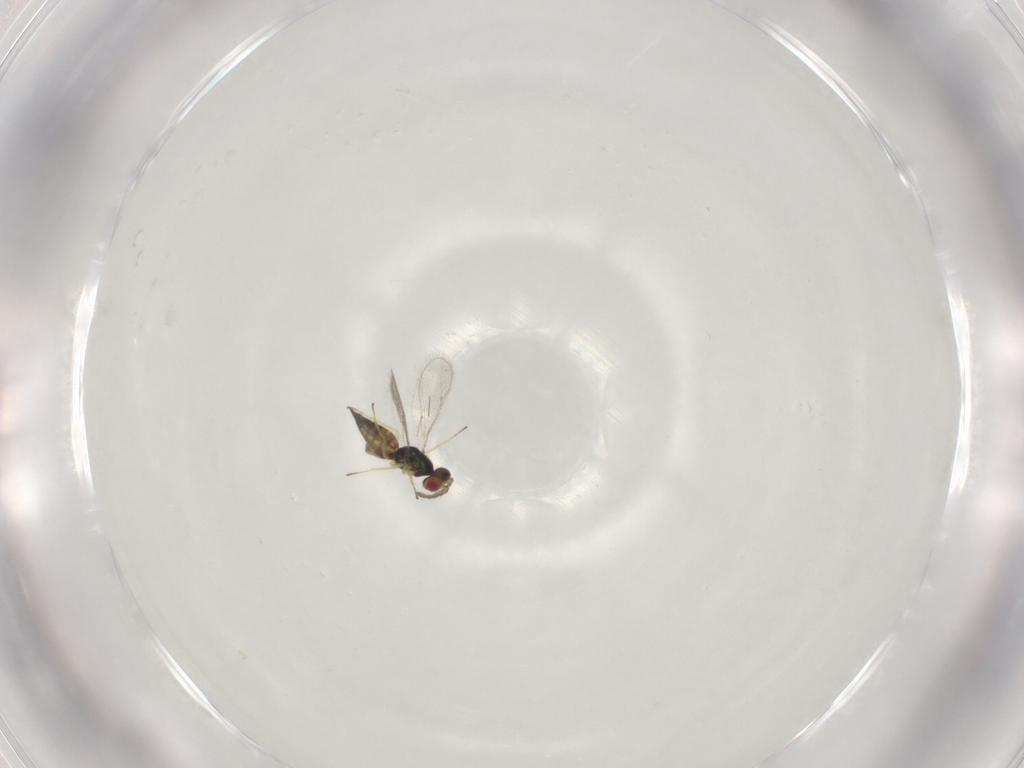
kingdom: Animalia
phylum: Arthropoda
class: Insecta
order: Hymenoptera
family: Eulophidae
